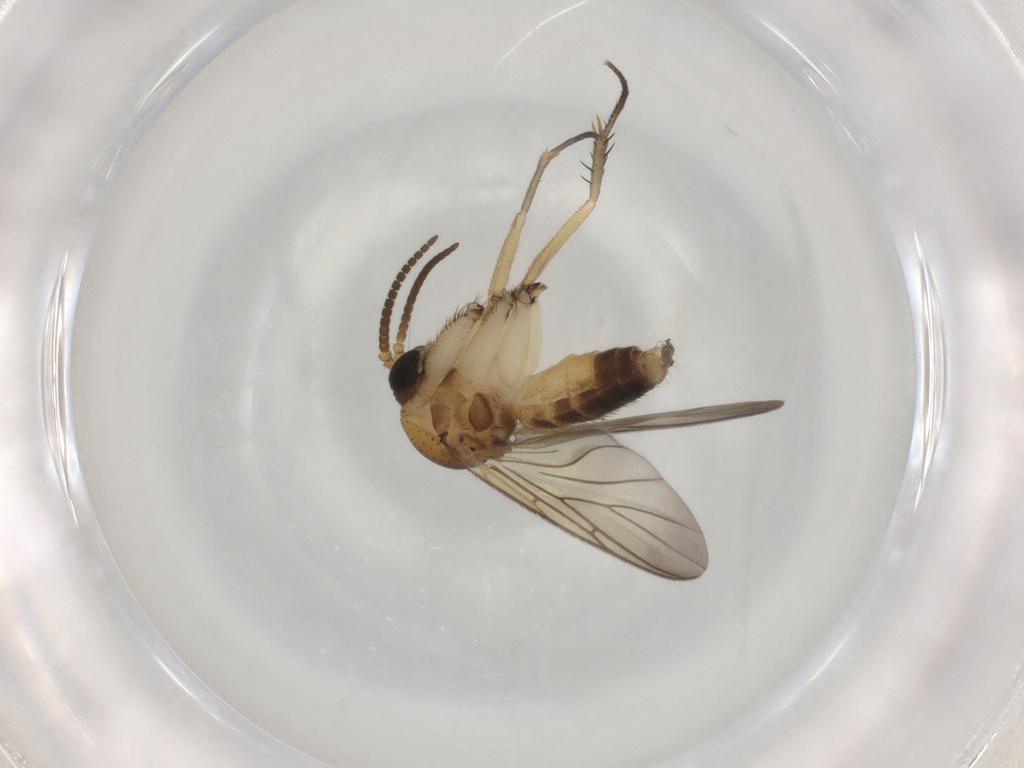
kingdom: Animalia
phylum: Arthropoda
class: Insecta
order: Diptera
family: Mycetophilidae
